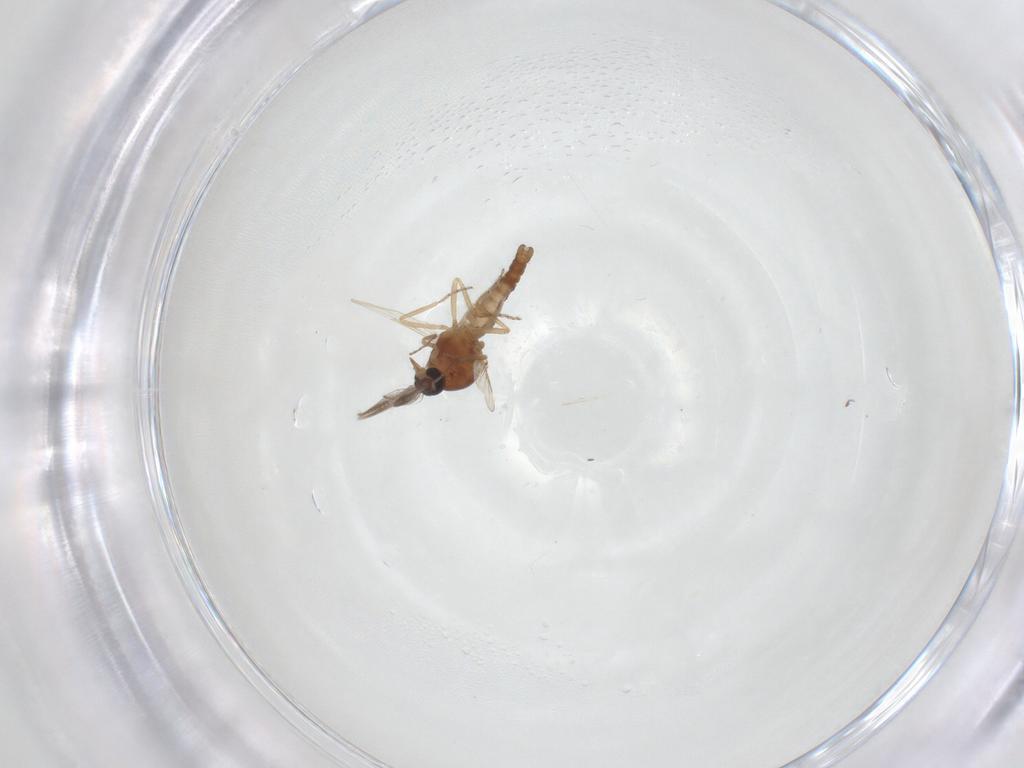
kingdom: Animalia
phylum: Arthropoda
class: Insecta
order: Diptera
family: Ceratopogonidae
